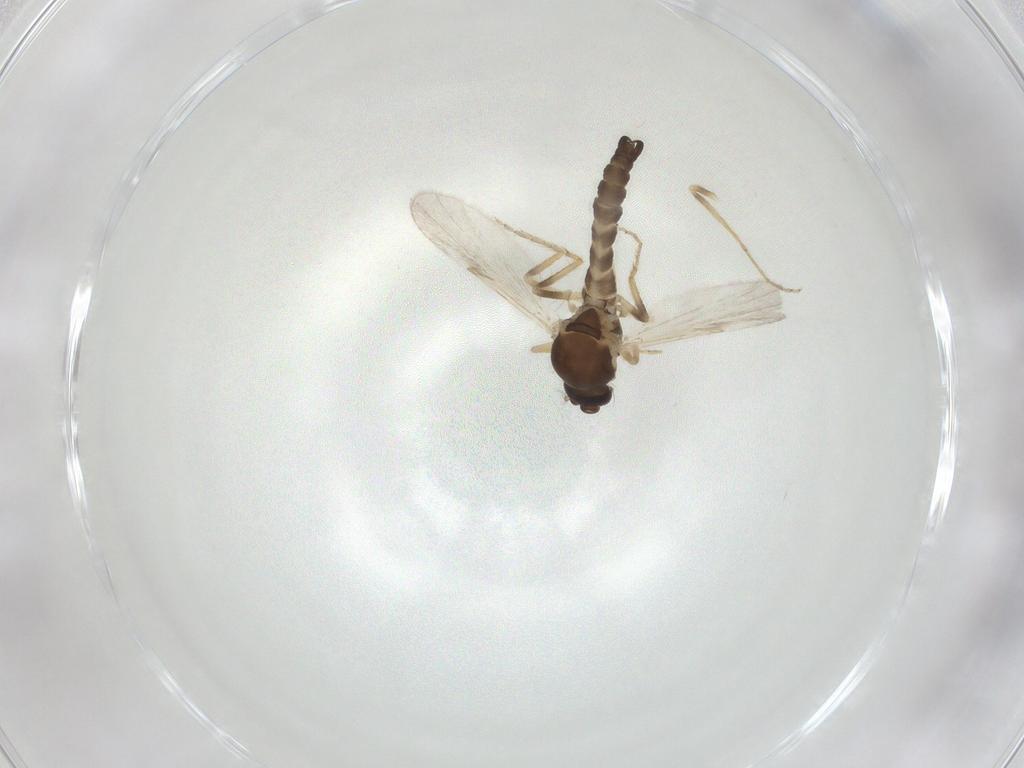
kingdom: Animalia
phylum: Arthropoda
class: Insecta
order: Diptera
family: Ceratopogonidae
